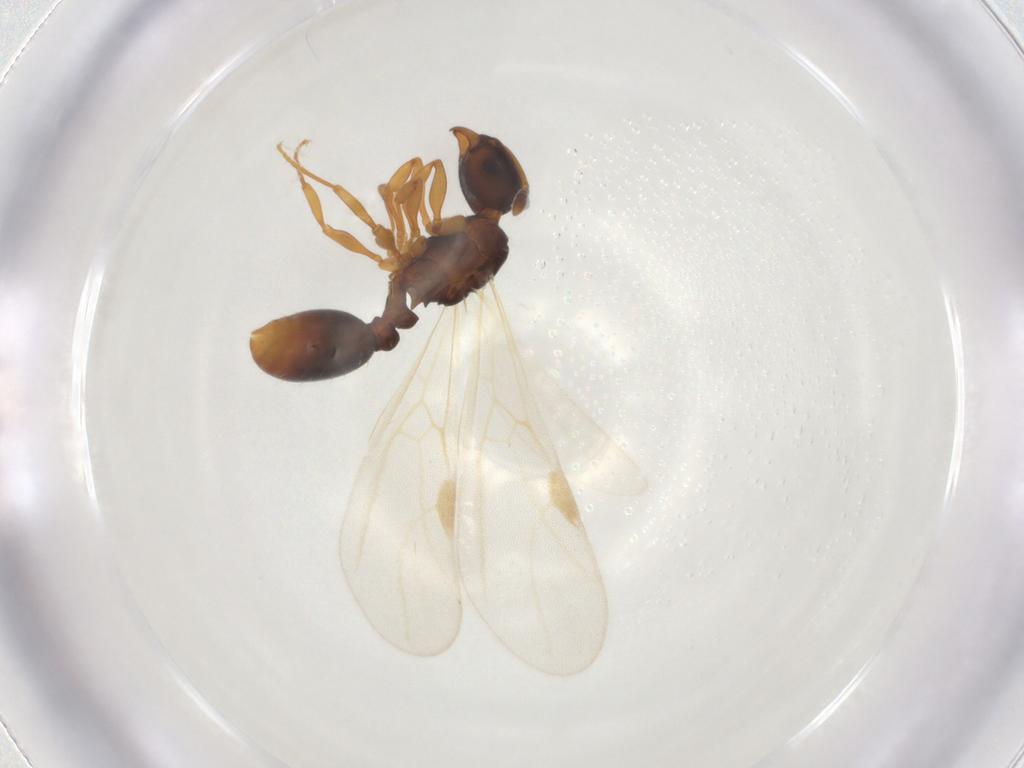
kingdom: Animalia
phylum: Arthropoda
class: Insecta
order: Hymenoptera
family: Formicidae
